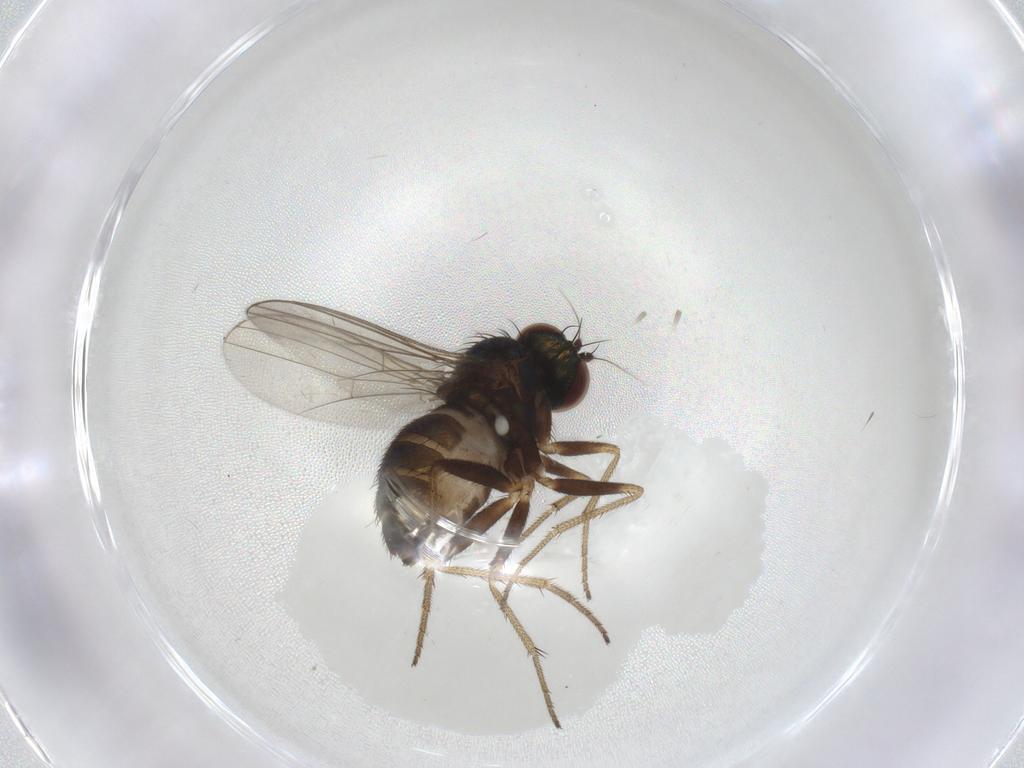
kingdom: Animalia
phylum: Arthropoda
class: Insecta
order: Diptera
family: Cecidomyiidae
